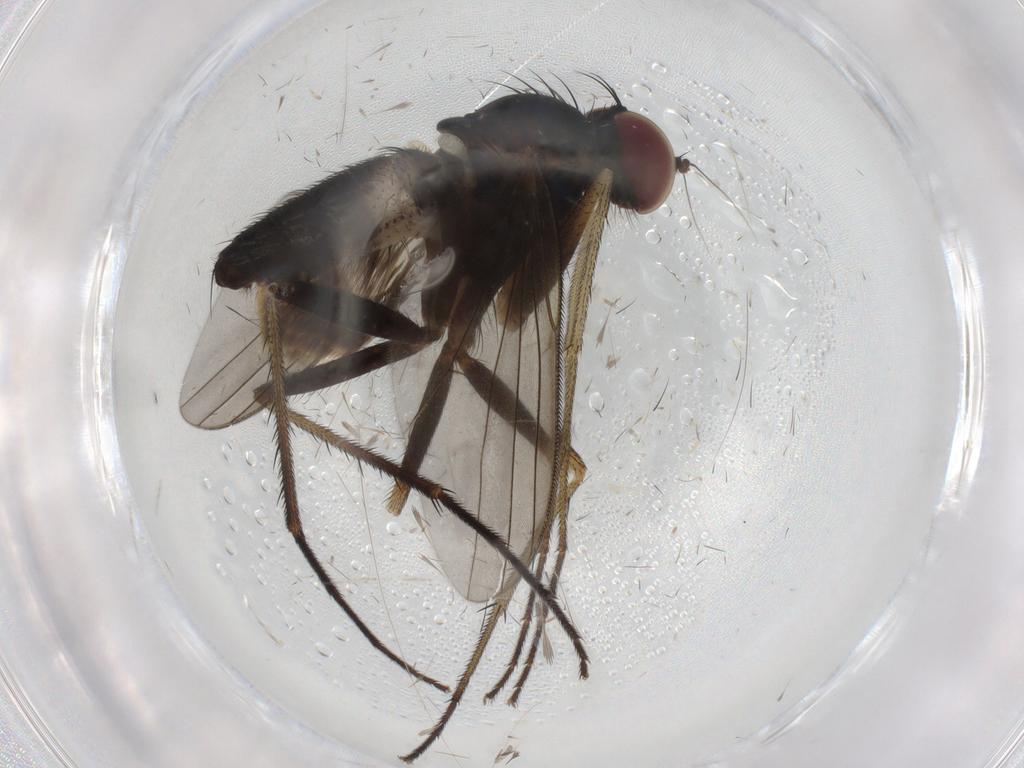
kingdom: Animalia
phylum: Arthropoda
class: Insecta
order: Diptera
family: Dolichopodidae
